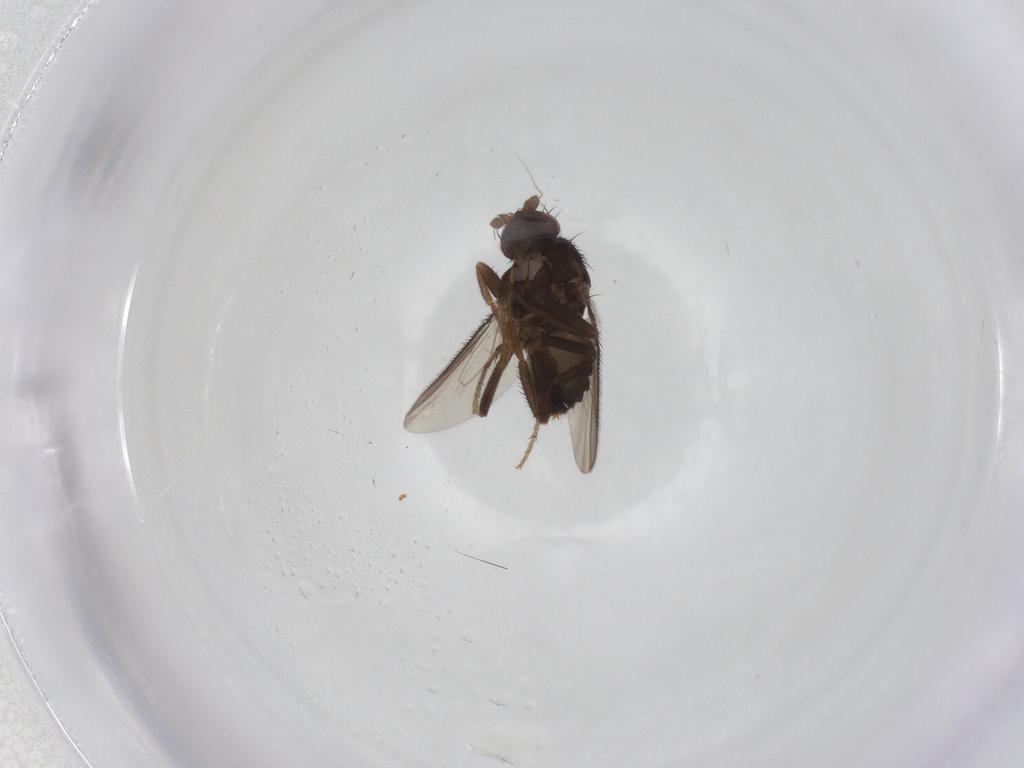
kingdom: Animalia
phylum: Arthropoda
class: Insecta
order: Diptera
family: Sphaeroceridae
